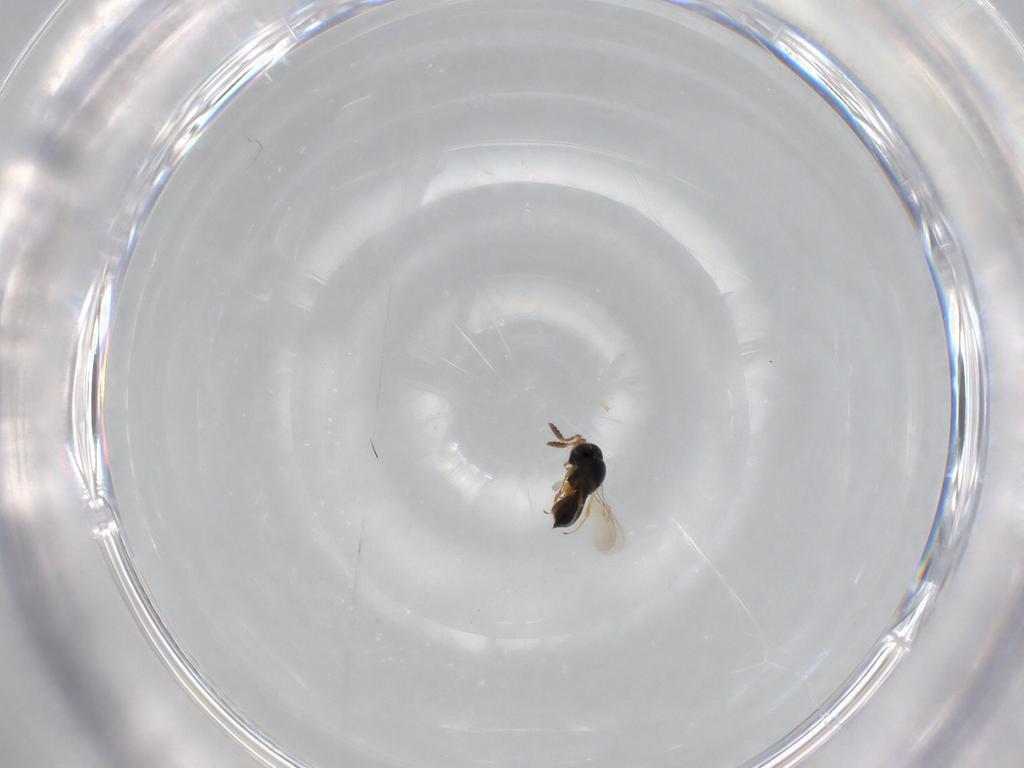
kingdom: Animalia
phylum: Arthropoda
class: Insecta
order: Hymenoptera
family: Scelionidae
